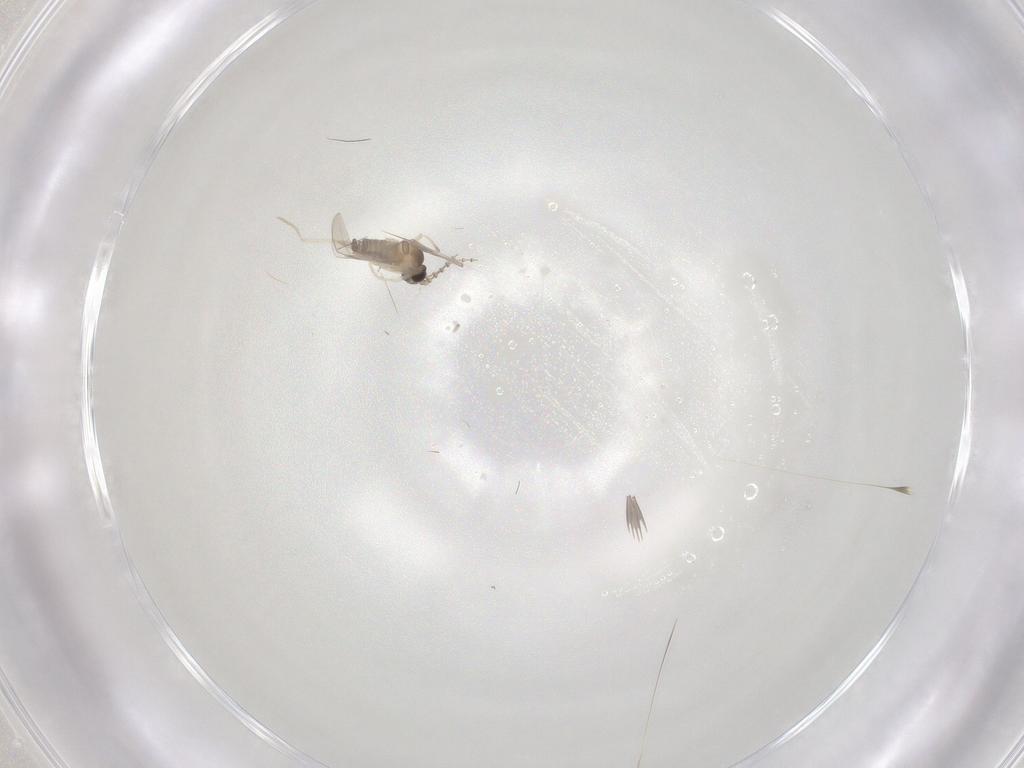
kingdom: Animalia
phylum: Arthropoda
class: Insecta
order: Diptera
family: Cecidomyiidae
